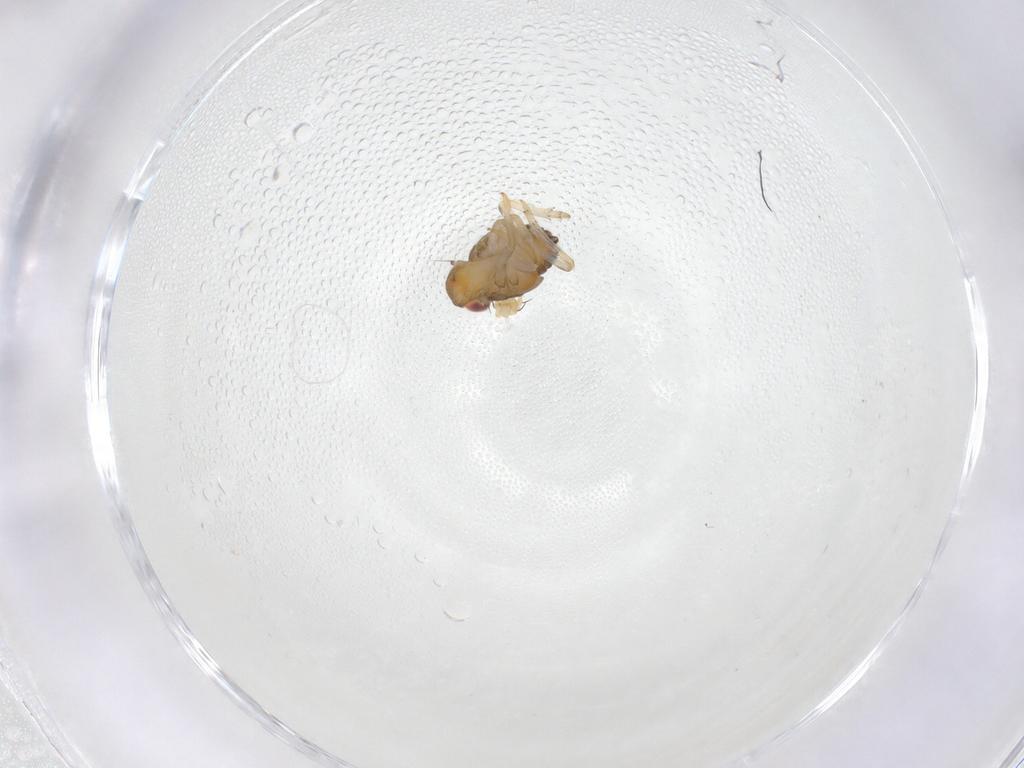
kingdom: Animalia
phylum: Arthropoda
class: Insecta
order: Hemiptera
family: Issidae
